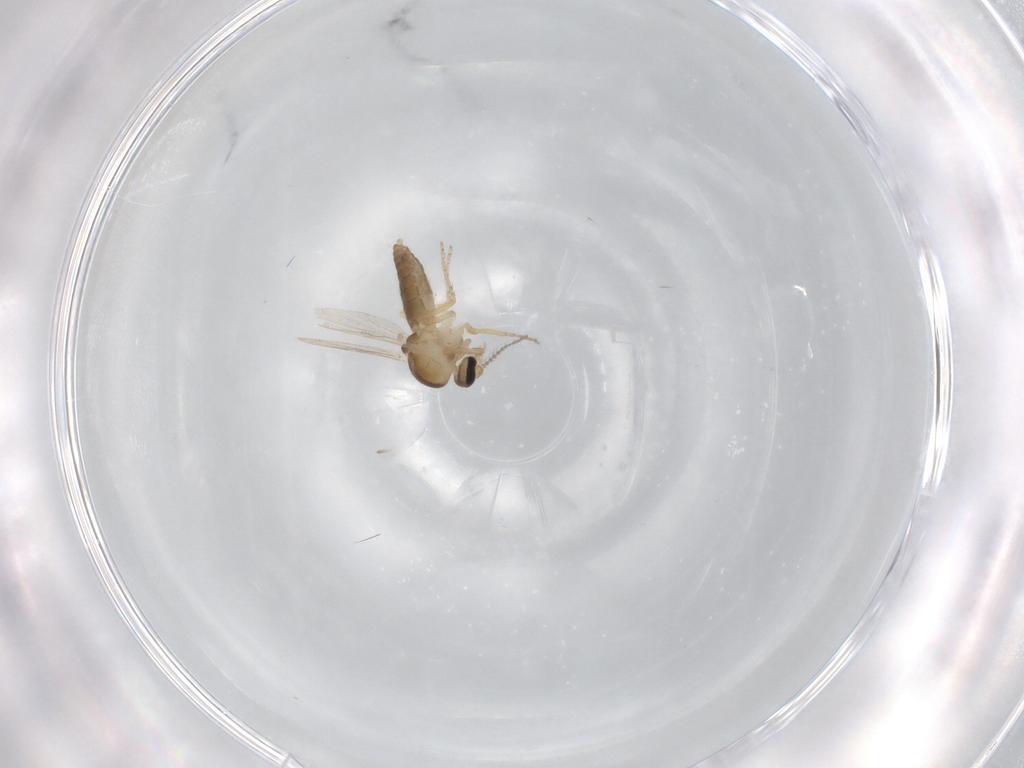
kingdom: Animalia
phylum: Arthropoda
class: Insecta
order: Diptera
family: Ceratopogonidae
